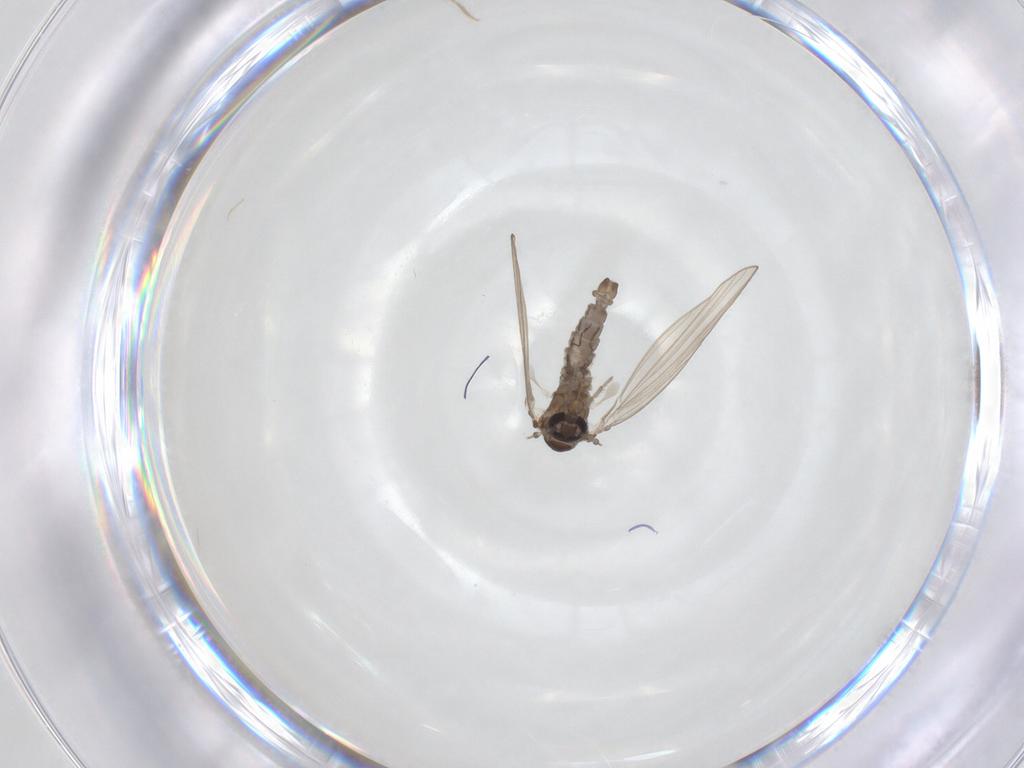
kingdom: Animalia
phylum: Arthropoda
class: Insecta
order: Diptera
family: Psychodidae
